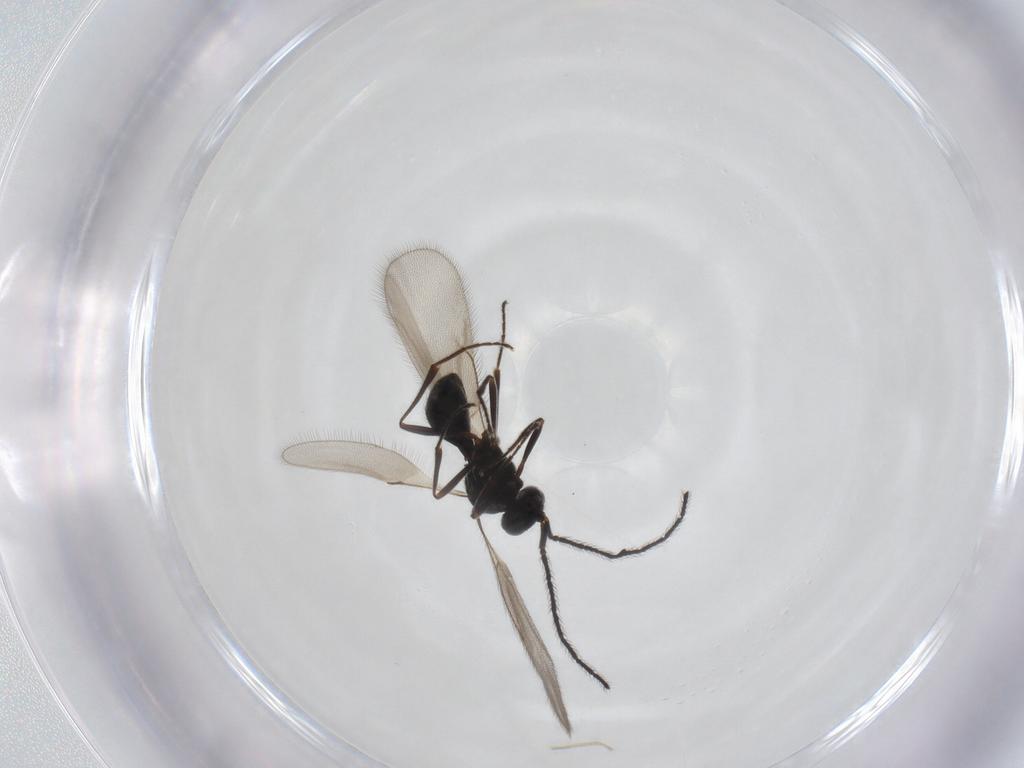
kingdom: Animalia
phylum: Arthropoda
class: Insecta
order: Hymenoptera
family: Scelionidae
